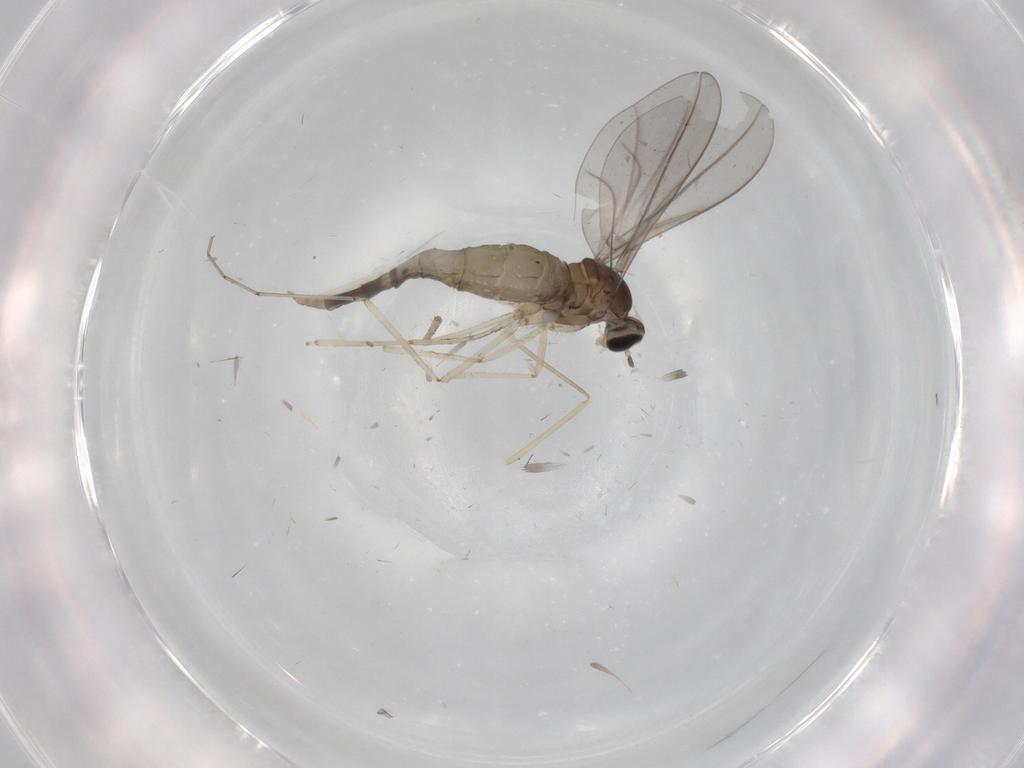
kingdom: Animalia
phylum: Arthropoda
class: Insecta
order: Diptera
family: Cecidomyiidae
